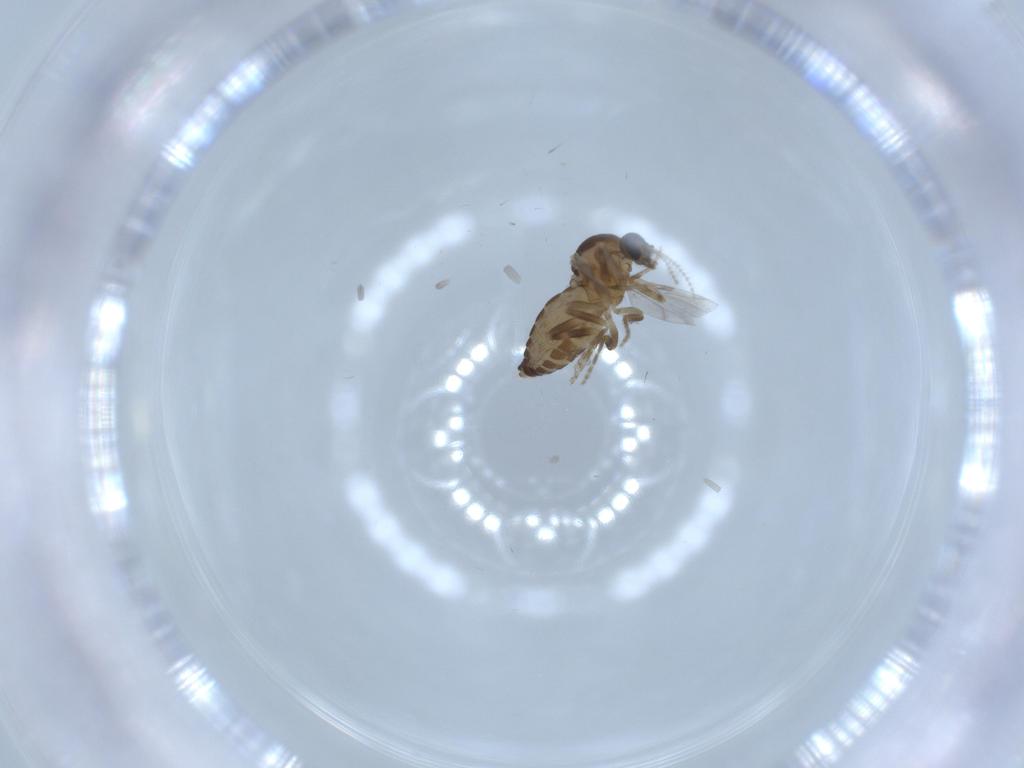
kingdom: Animalia
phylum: Arthropoda
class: Insecta
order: Diptera
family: Ceratopogonidae
